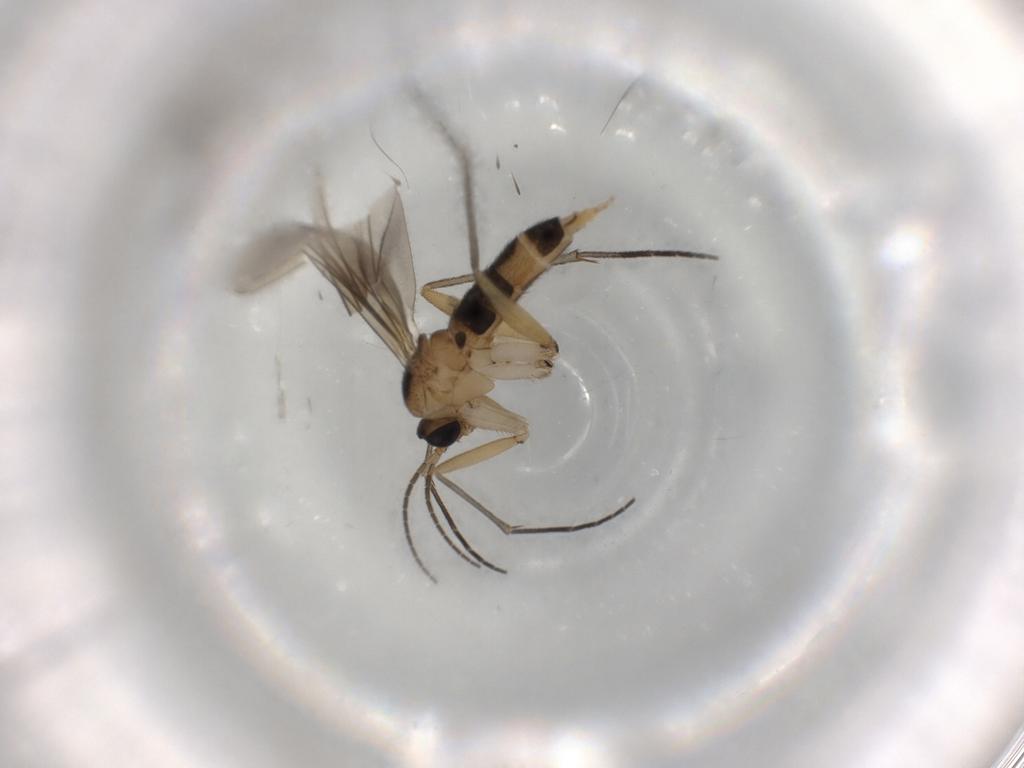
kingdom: Animalia
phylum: Arthropoda
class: Insecta
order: Diptera
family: Sciaridae
